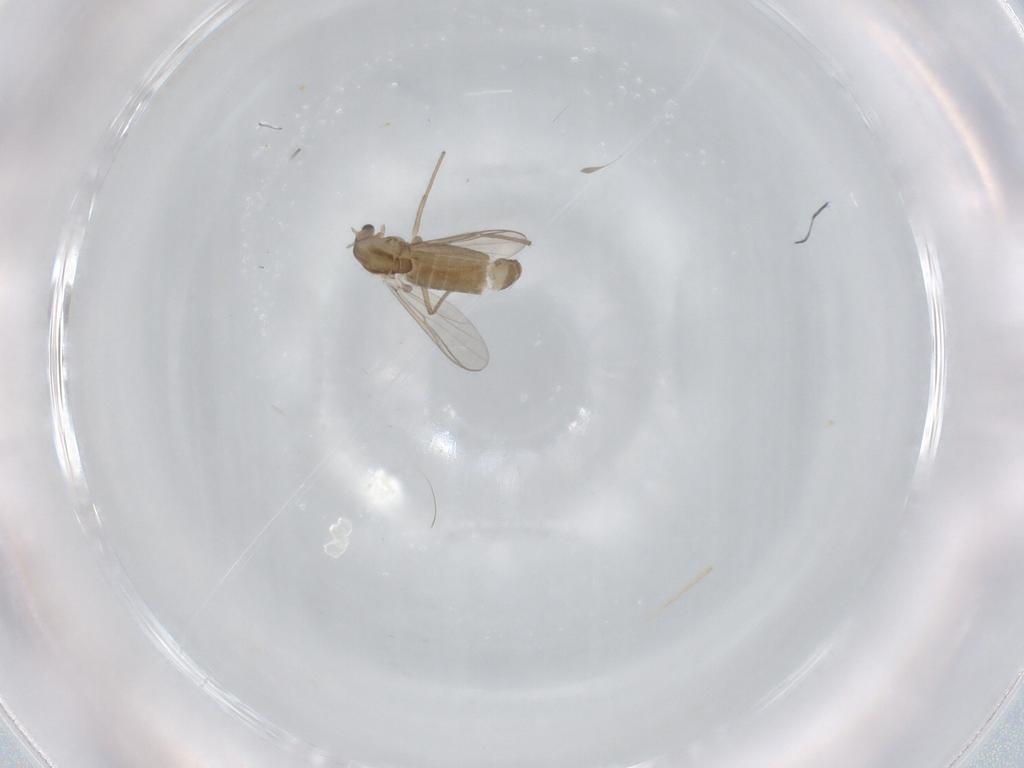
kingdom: Animalia
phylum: Arthropoda
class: Insecta
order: Diptera
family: Chironomidae
